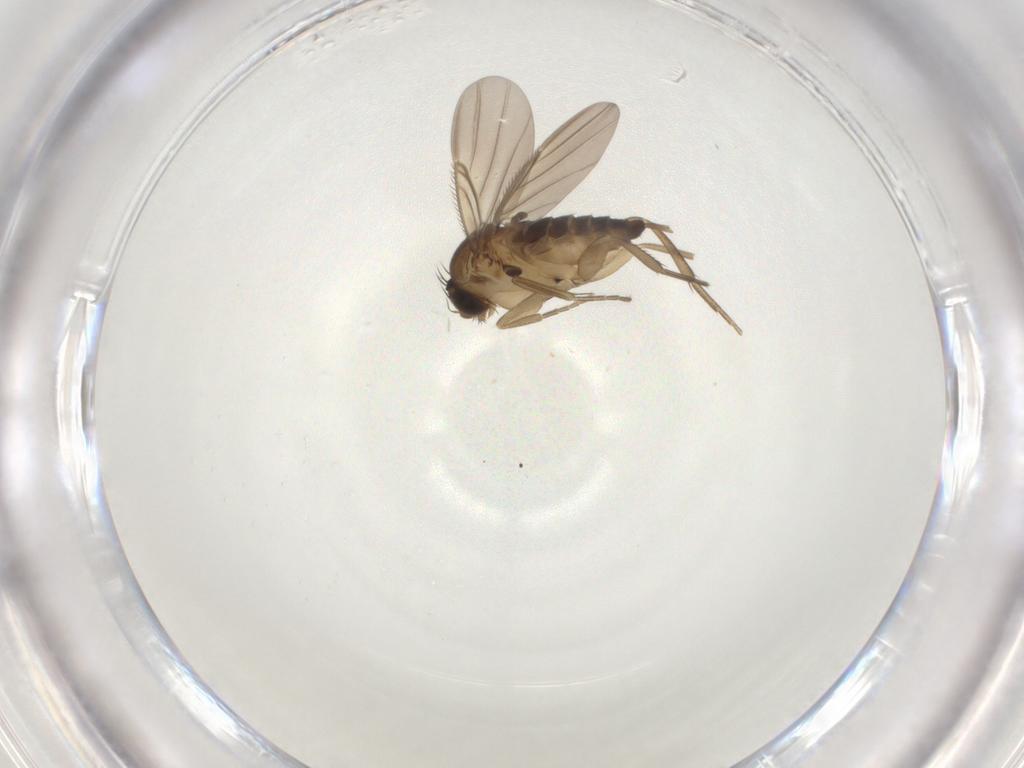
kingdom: Animalia
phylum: Arthropoda
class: Insecta
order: Diptera
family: Phoridae
